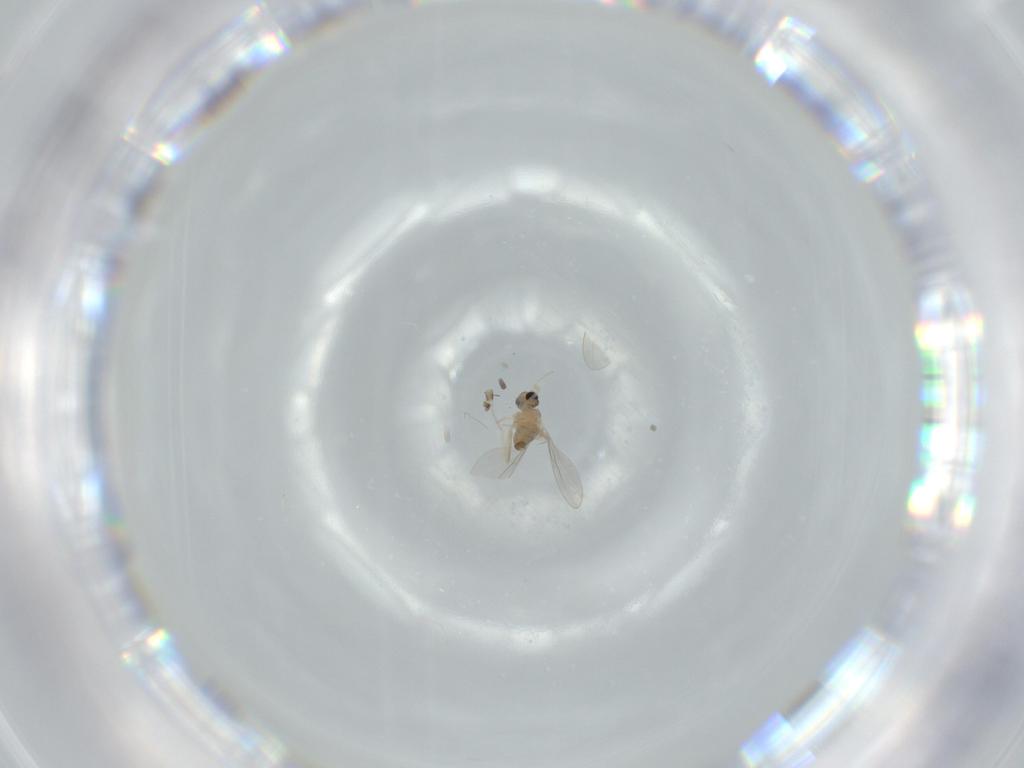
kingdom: Animalia
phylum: Arthropoda
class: Insecta
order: Diptera
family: Cecidomyiidae
